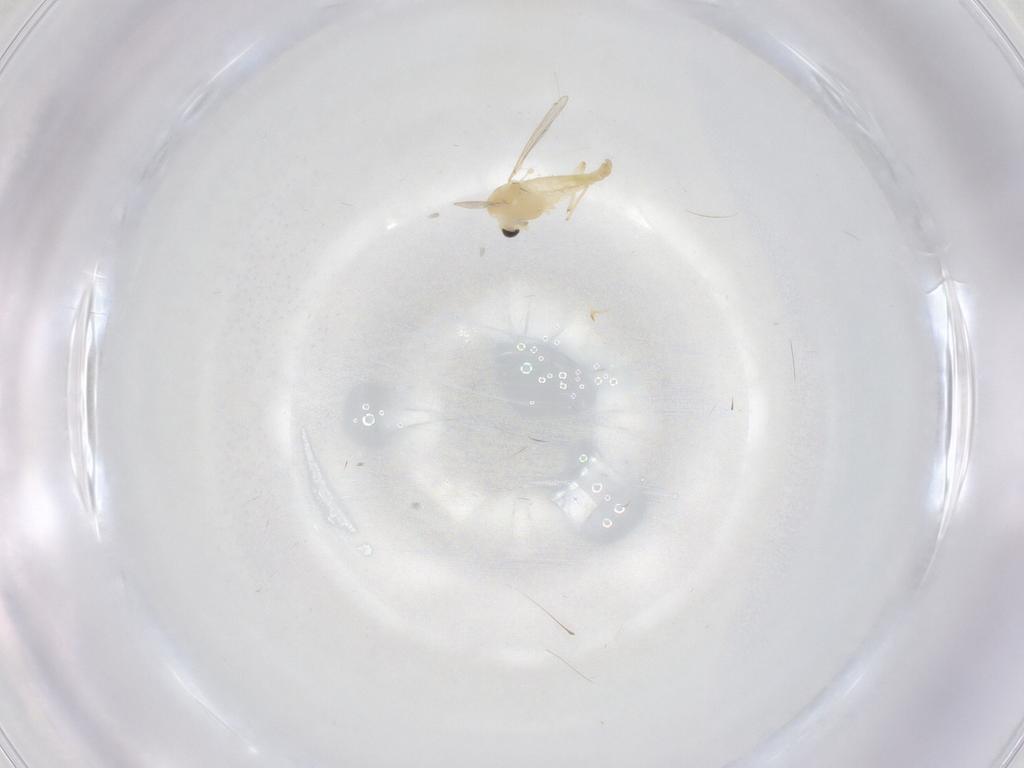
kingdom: Animalia
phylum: Arthropoda
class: Insecta
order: Diptera
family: Chironomidae
